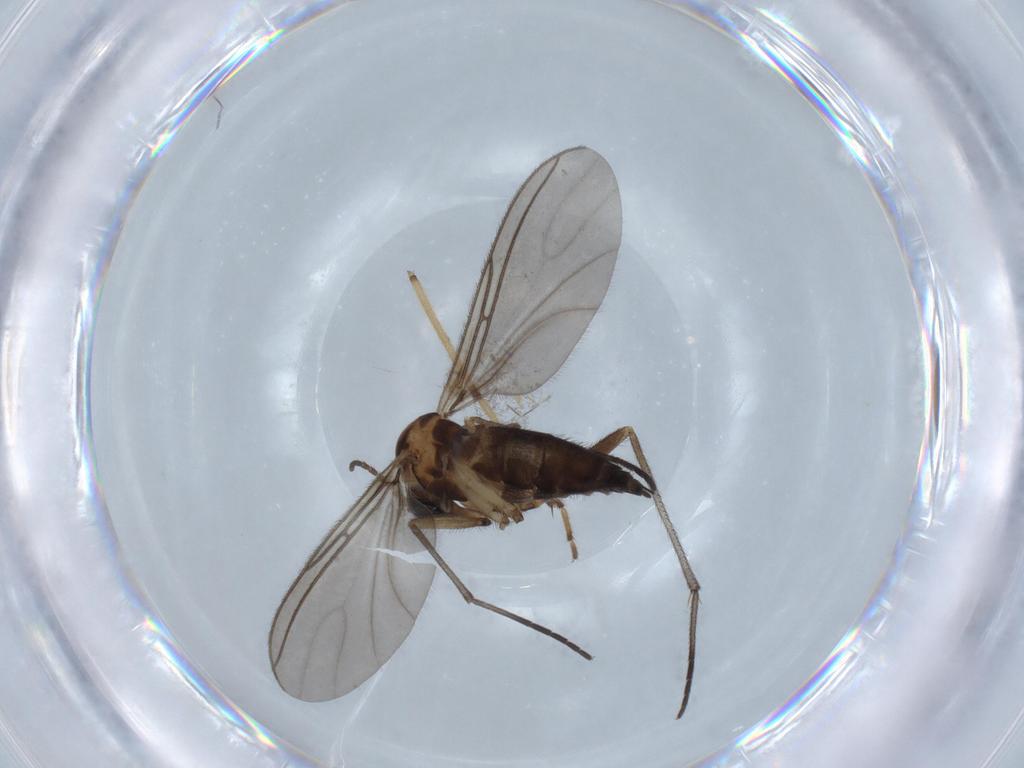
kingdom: Animalia
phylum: Arthropoda
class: Insecta
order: Diptera
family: Sciaridae
